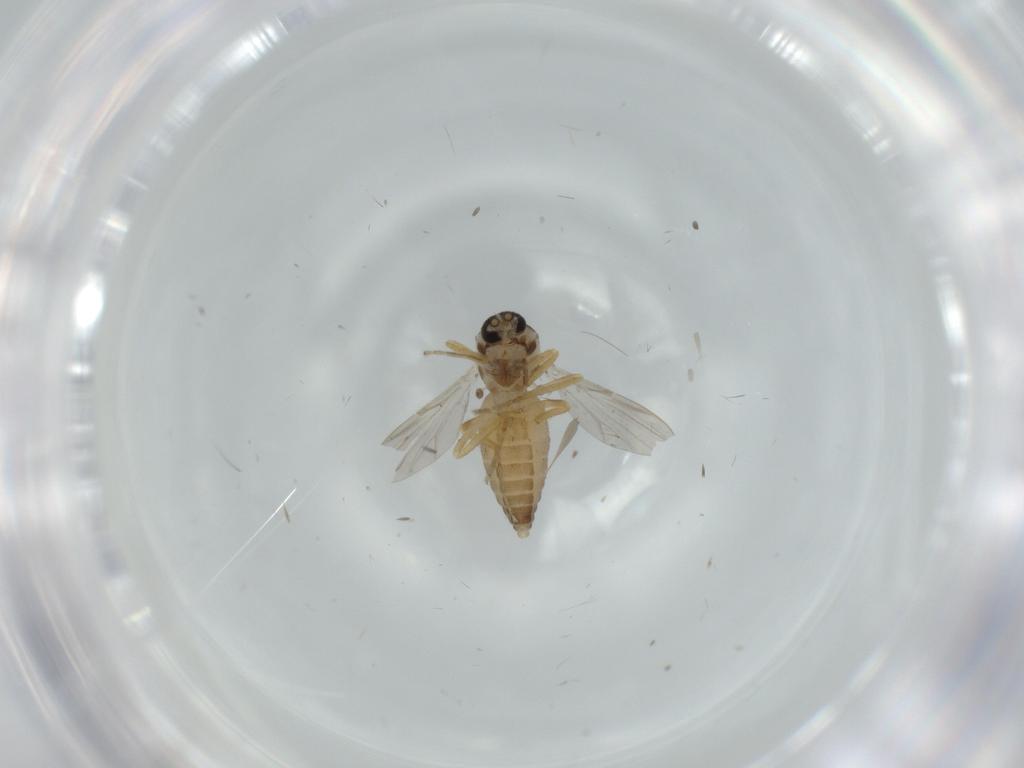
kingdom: Animalia
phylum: Arthropoda
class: Insecta
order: Diptera
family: Ceratopogonidae
